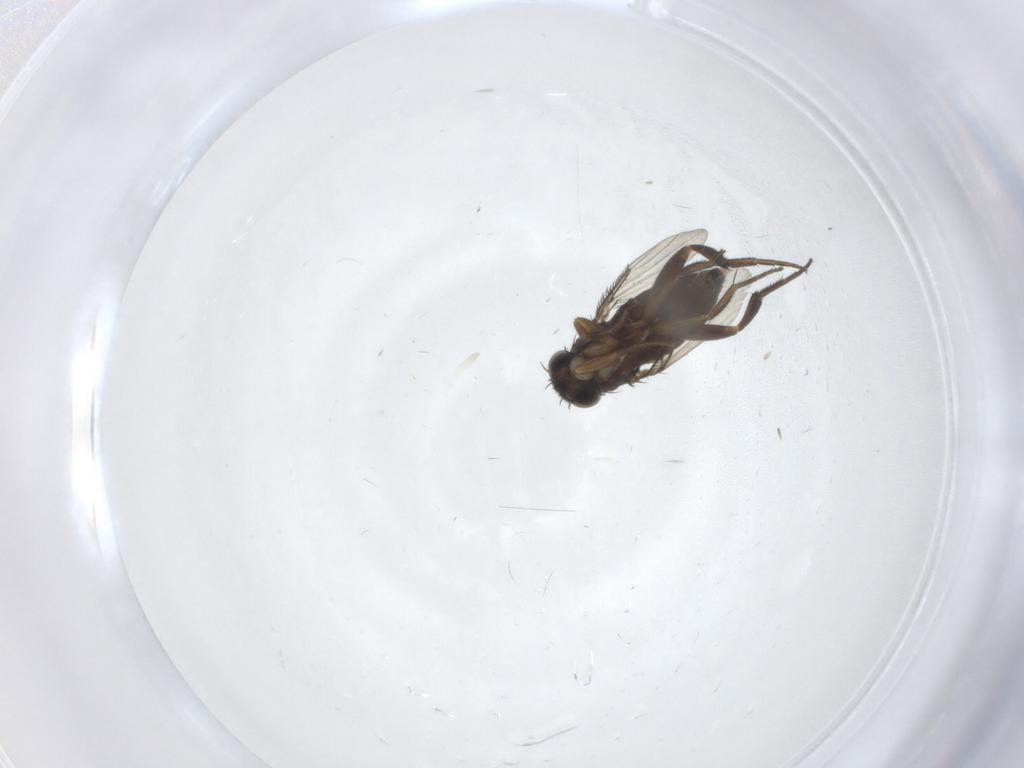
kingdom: Animalia
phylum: Arthropoda
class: Insecta
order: Diptera
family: Phoridae
